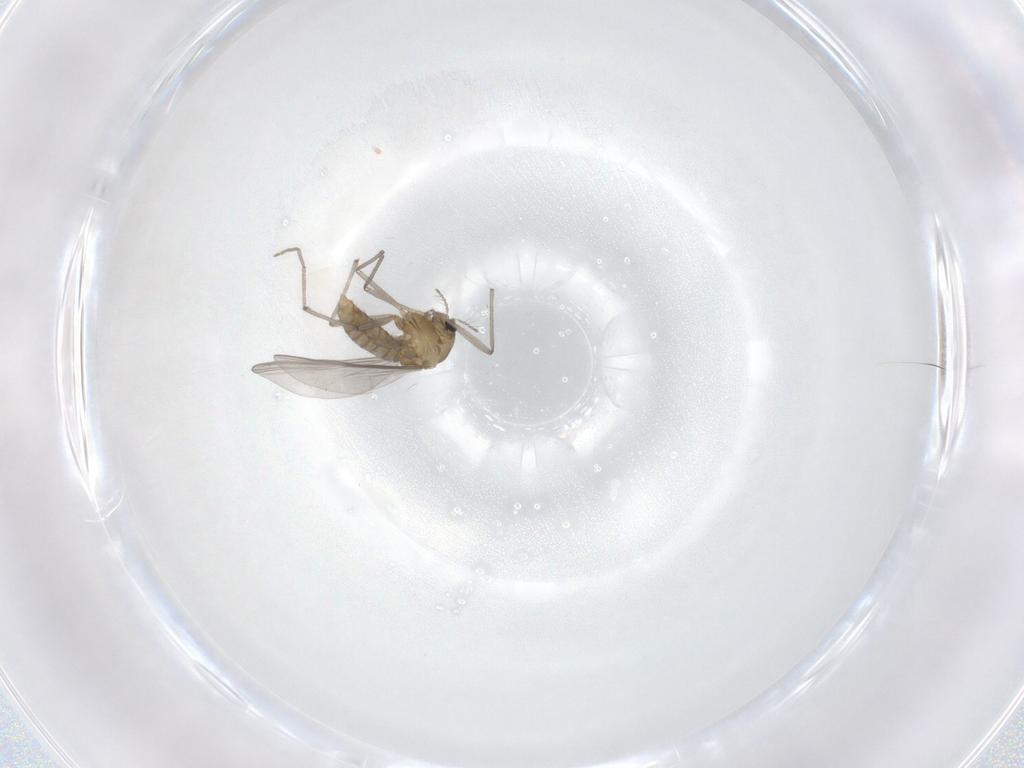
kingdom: Animalia
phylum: Arthropoda
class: Insecta
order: Diptera
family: Chironomidae
